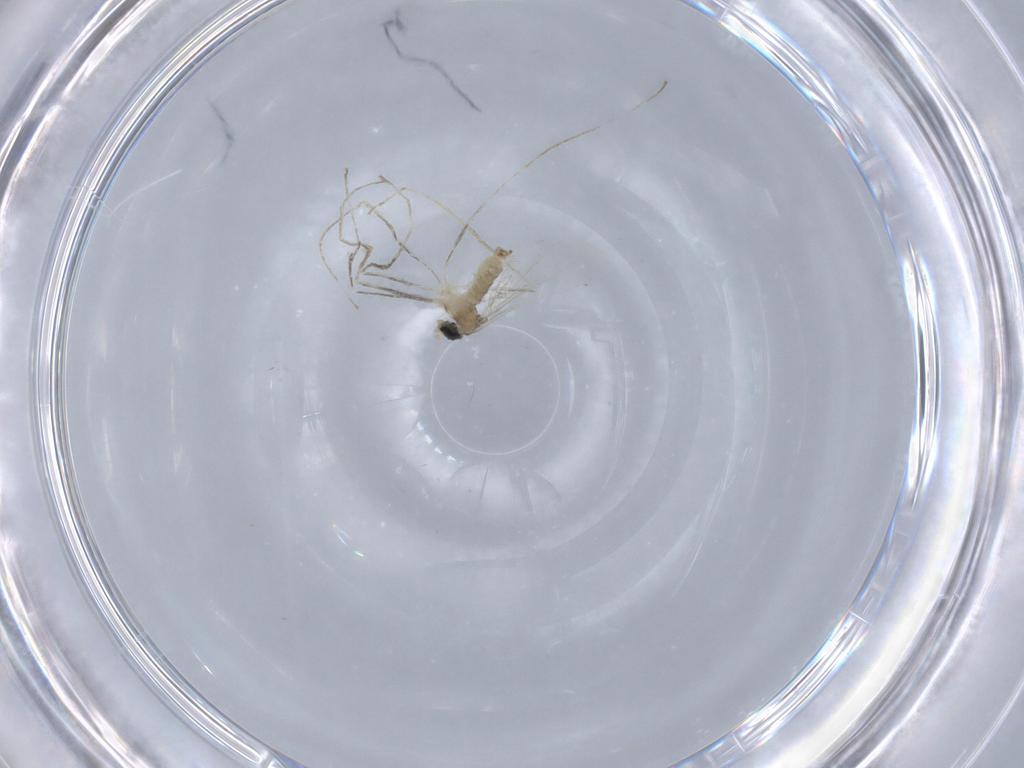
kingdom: Animalia
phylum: Arthropoda
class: Insecta
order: Diptera
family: Cecidomyiidae
